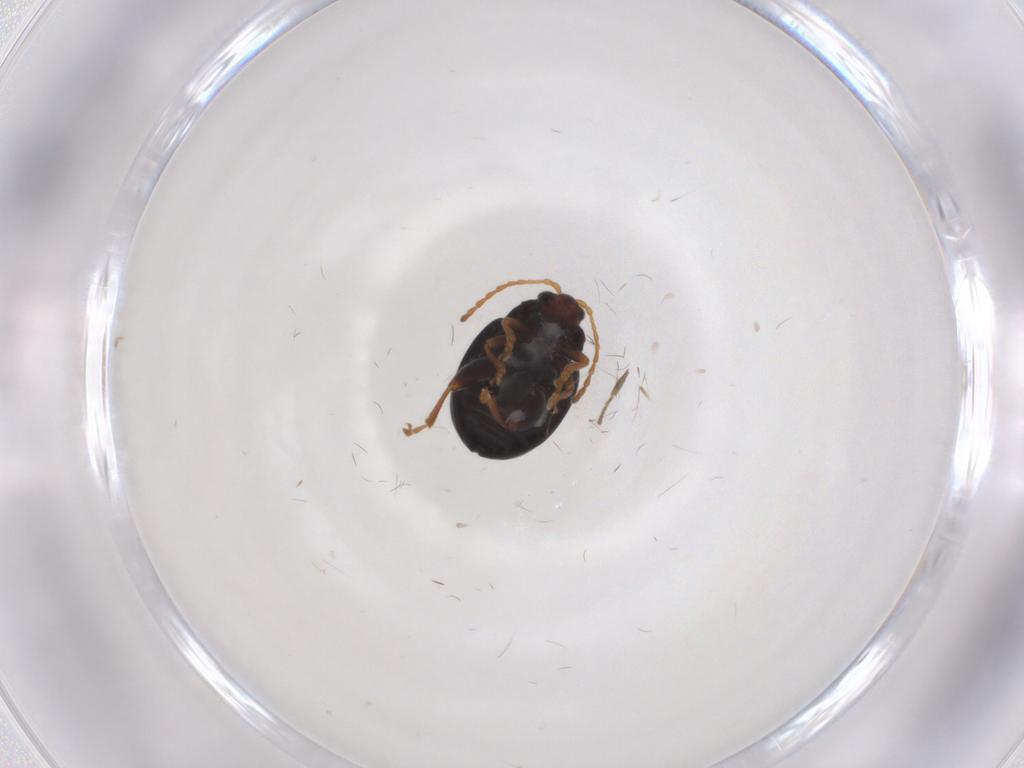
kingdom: Animalia
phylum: Arthropoda
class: Insecta
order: Coleoptera
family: Chrysomelidae
